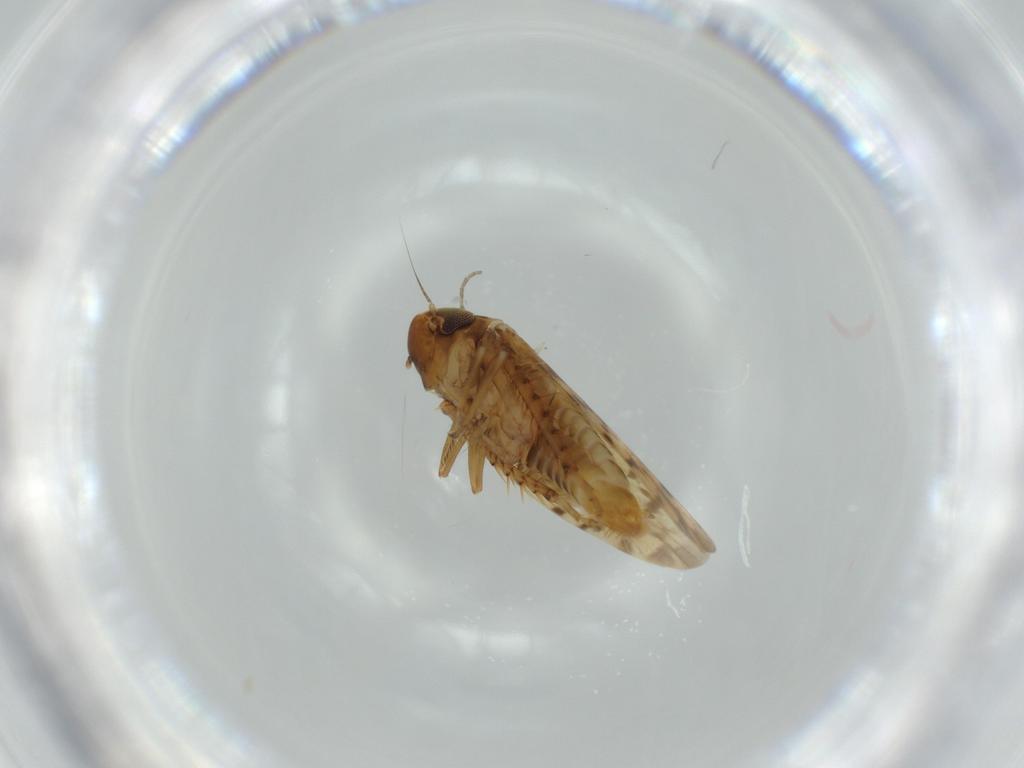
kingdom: Animalia
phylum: Arthropoda
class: Insecta
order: Hemiptera
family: Cicadellidae
